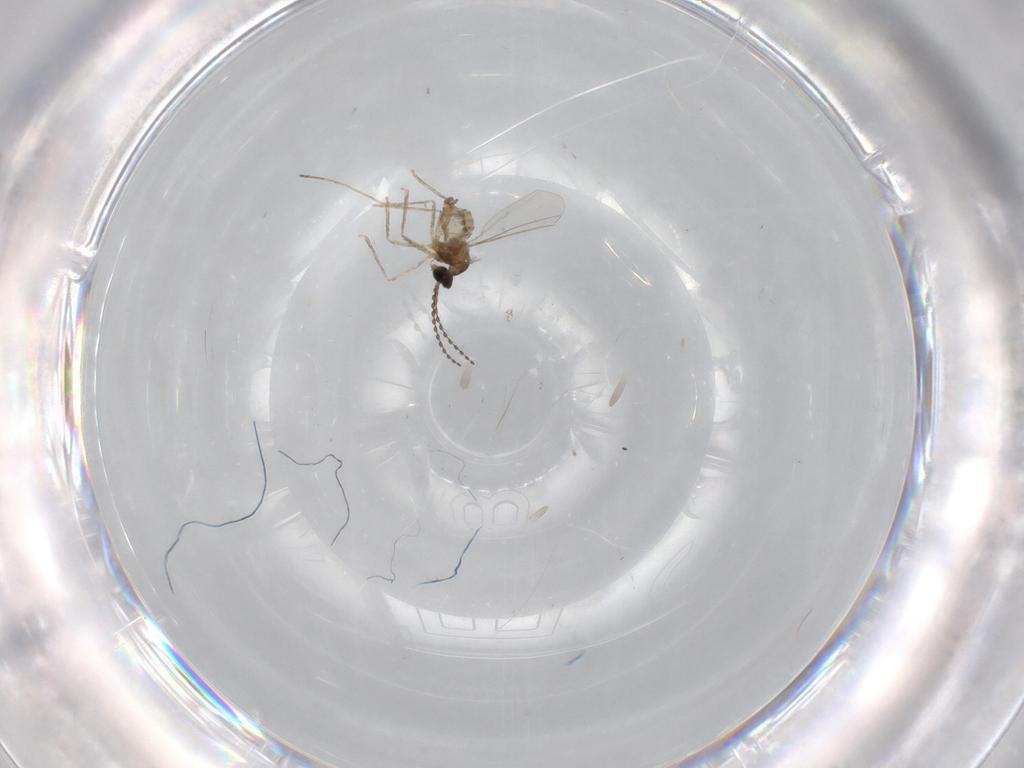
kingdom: Animalia
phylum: Arthropoda
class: Insecta
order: Diptera
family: Cecidomyiidae
